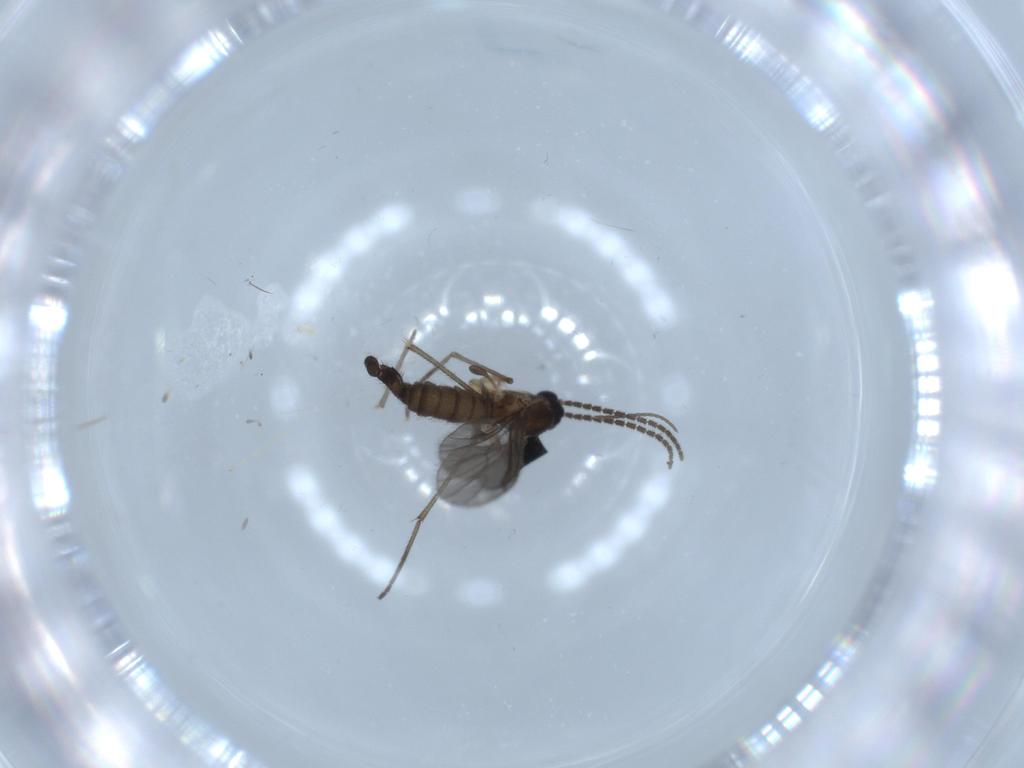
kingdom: Animalia
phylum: Arthropoda
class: Insecta
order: Diptera
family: Sciaridae
